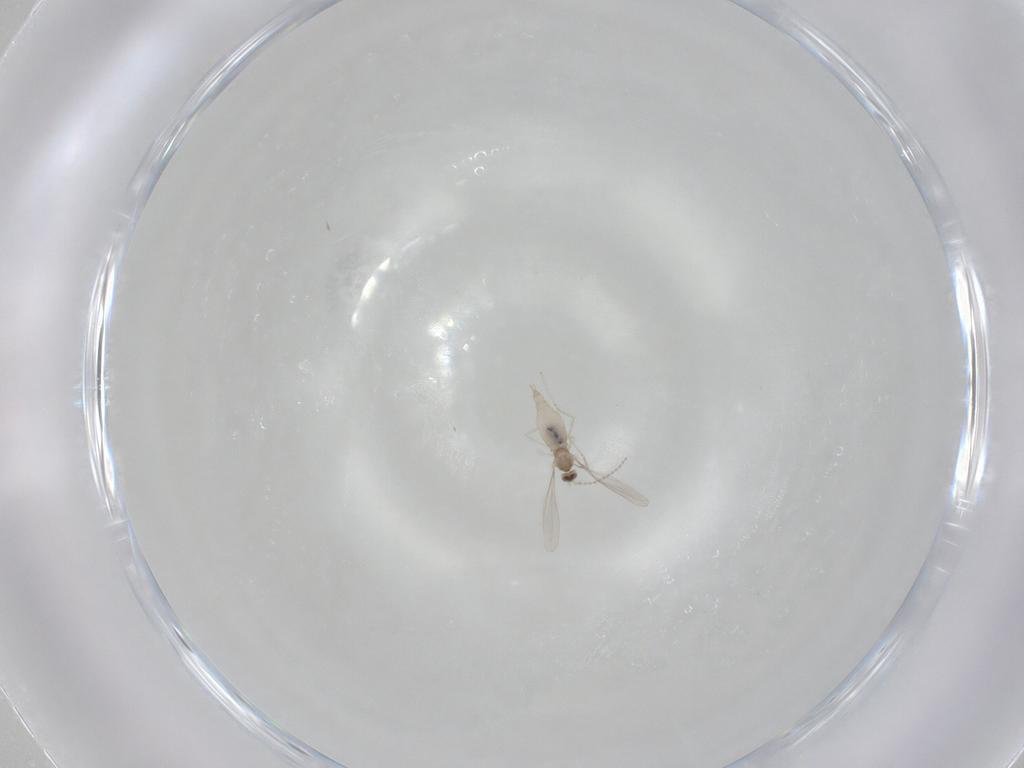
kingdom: Animalia
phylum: Arthropoda
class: Insecta
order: Diptera
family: Cecidomyiidae
